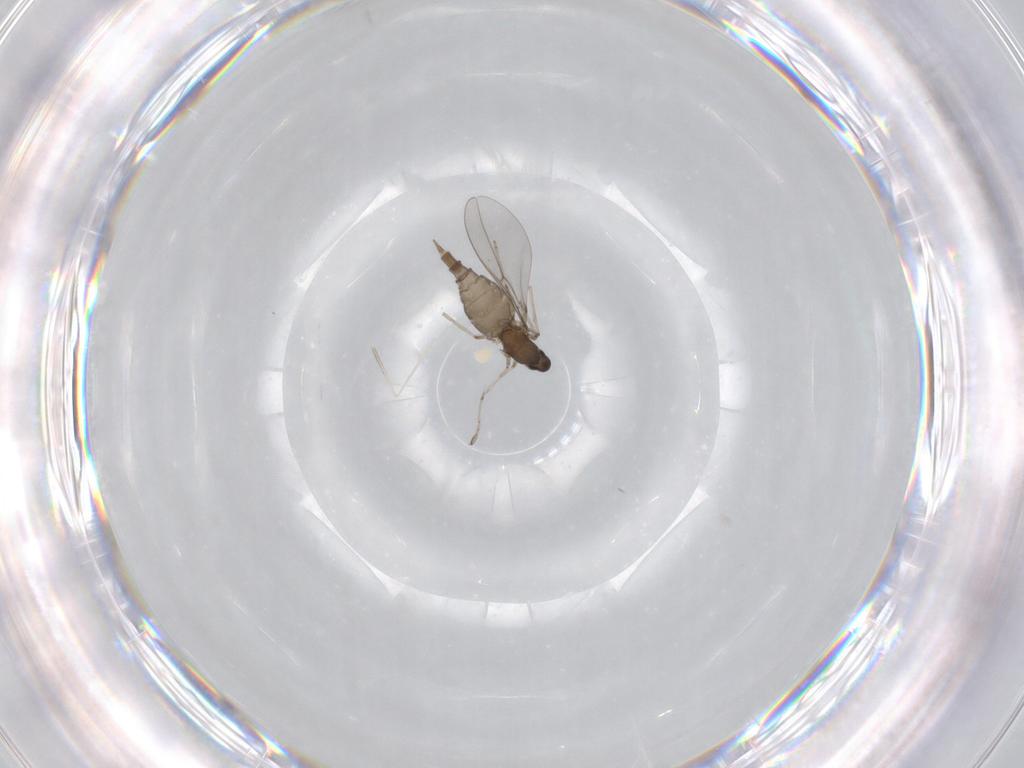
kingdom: Animalia
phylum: Arthropoda
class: Insecta
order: Diptera
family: Cecidomyiidae
